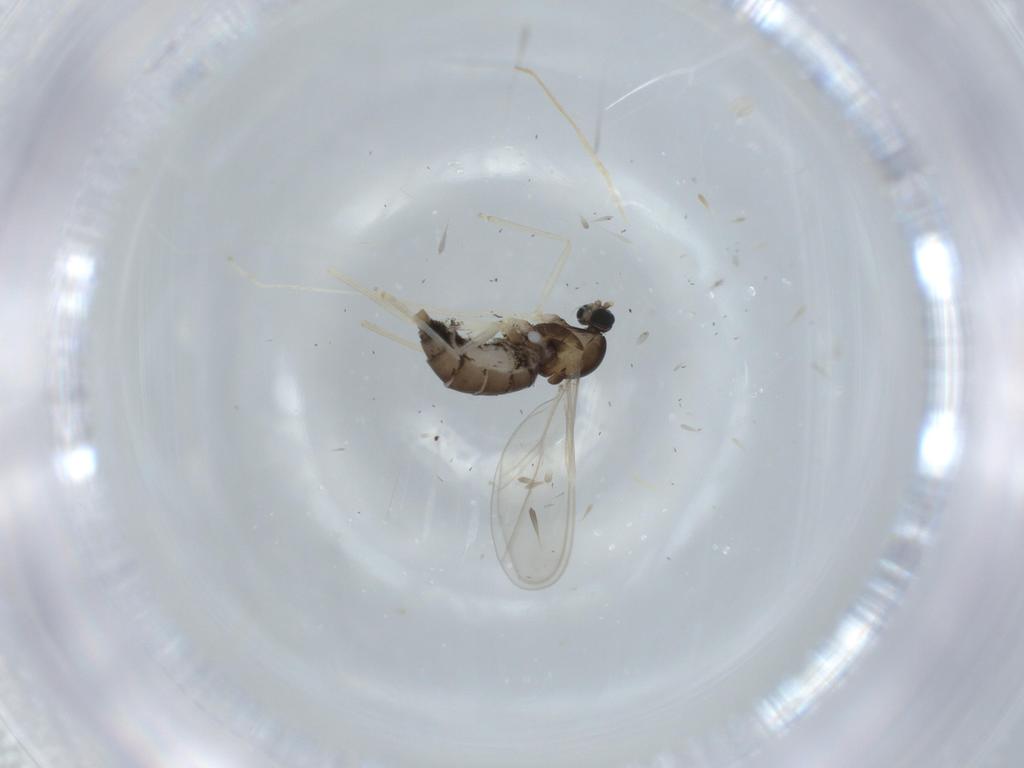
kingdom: Animalia
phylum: Arthropoda
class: Insecta
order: Diptera
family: Cecidomyiidae
